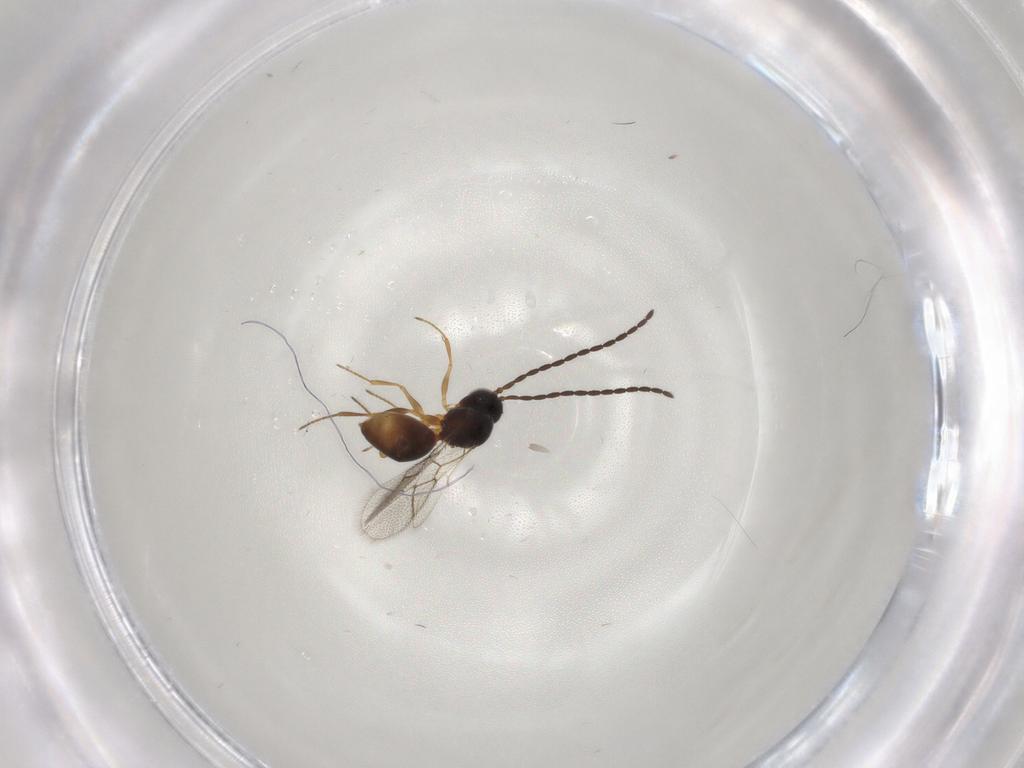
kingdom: Animalia
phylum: Arthropoda
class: Insecta
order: Hymenoptera
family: Figitidae
